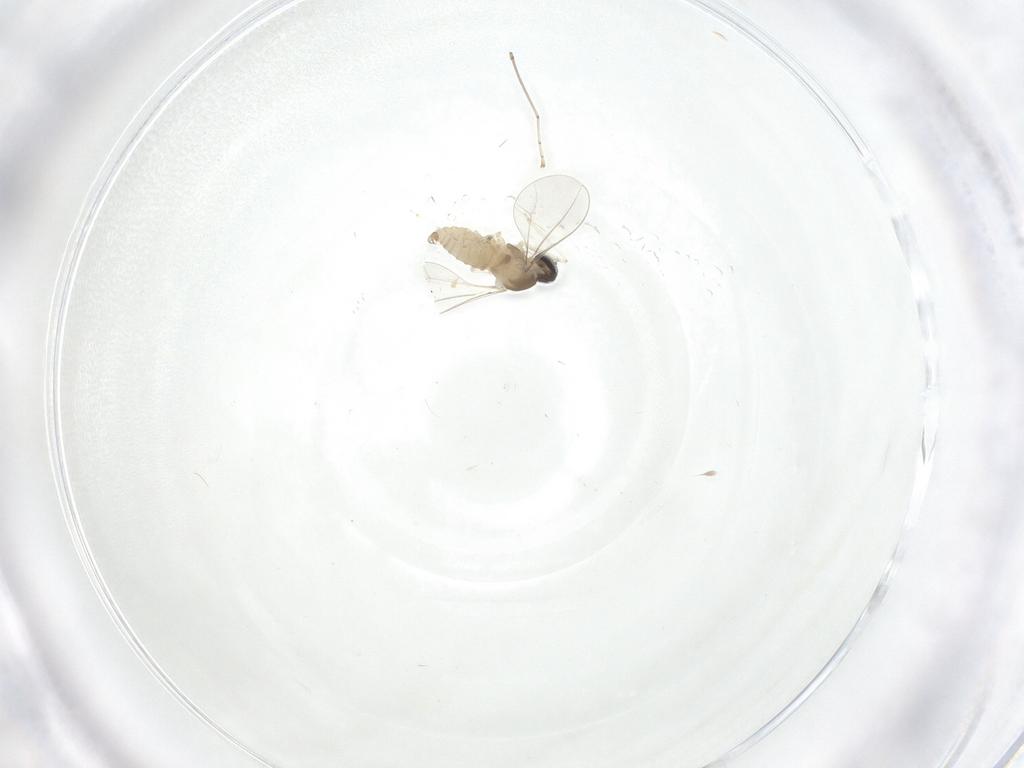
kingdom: Animalia
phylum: Arthropoda
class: Insecta
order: Diptera
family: Cecidomyiidae
